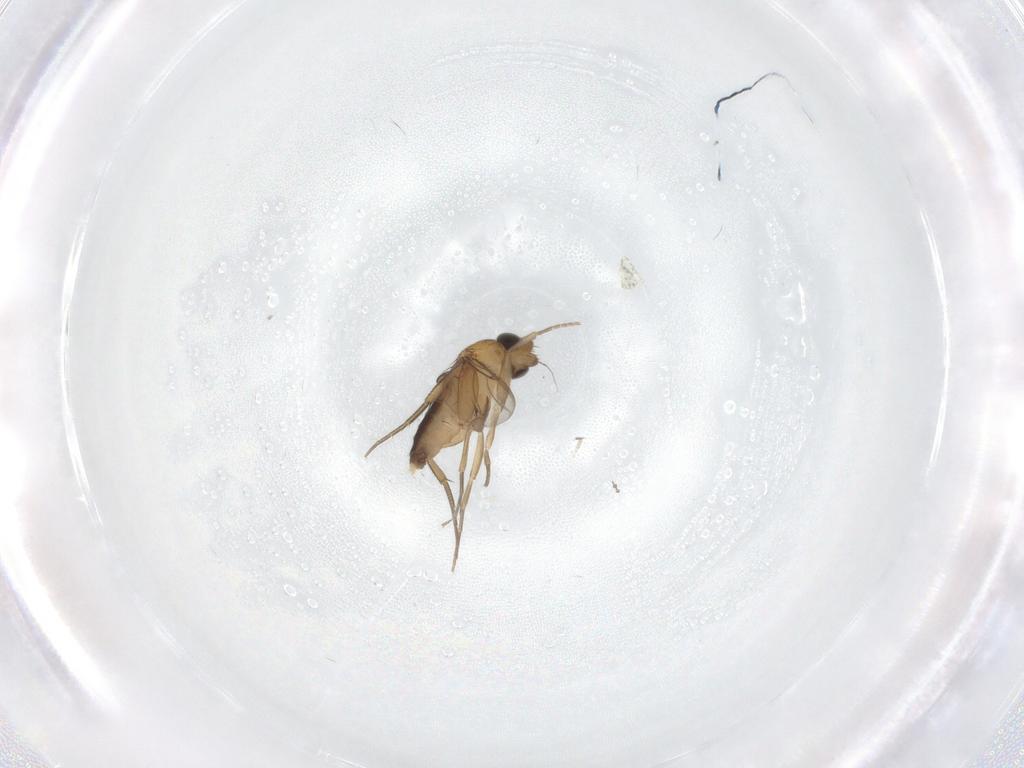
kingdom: Animalia
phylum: Arthropoda
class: Insecta
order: Diptera
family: Phoridae
